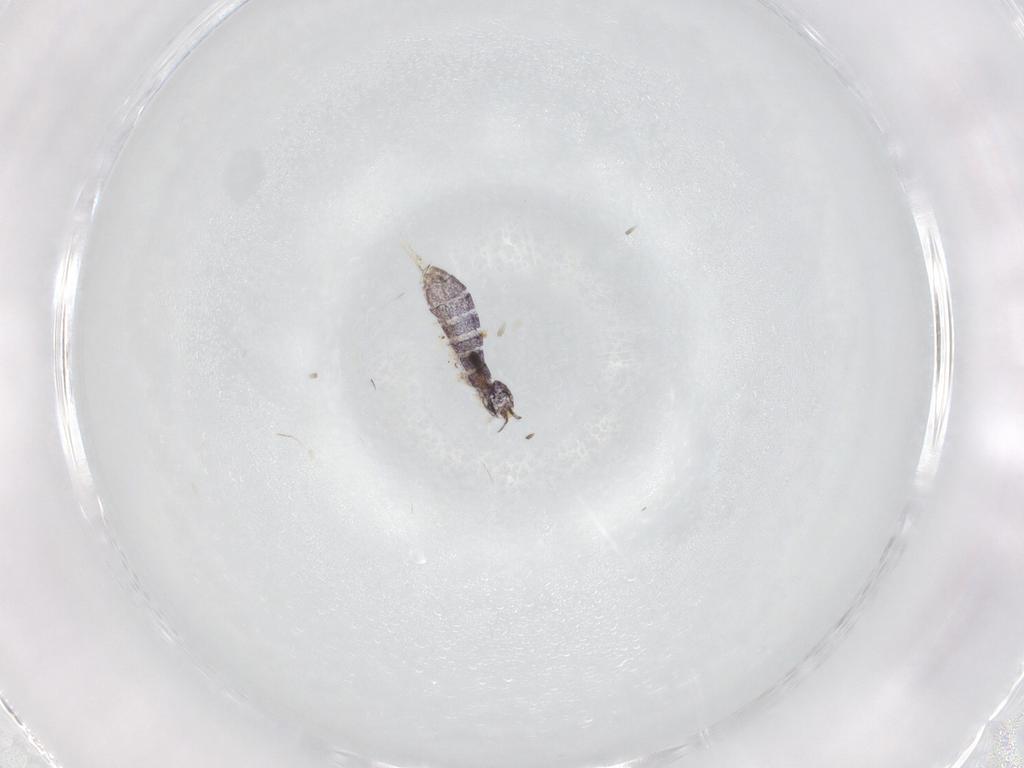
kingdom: Animalia
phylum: Arthropoda
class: Collembola
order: Entomobryomorpha
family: Isotomidae
